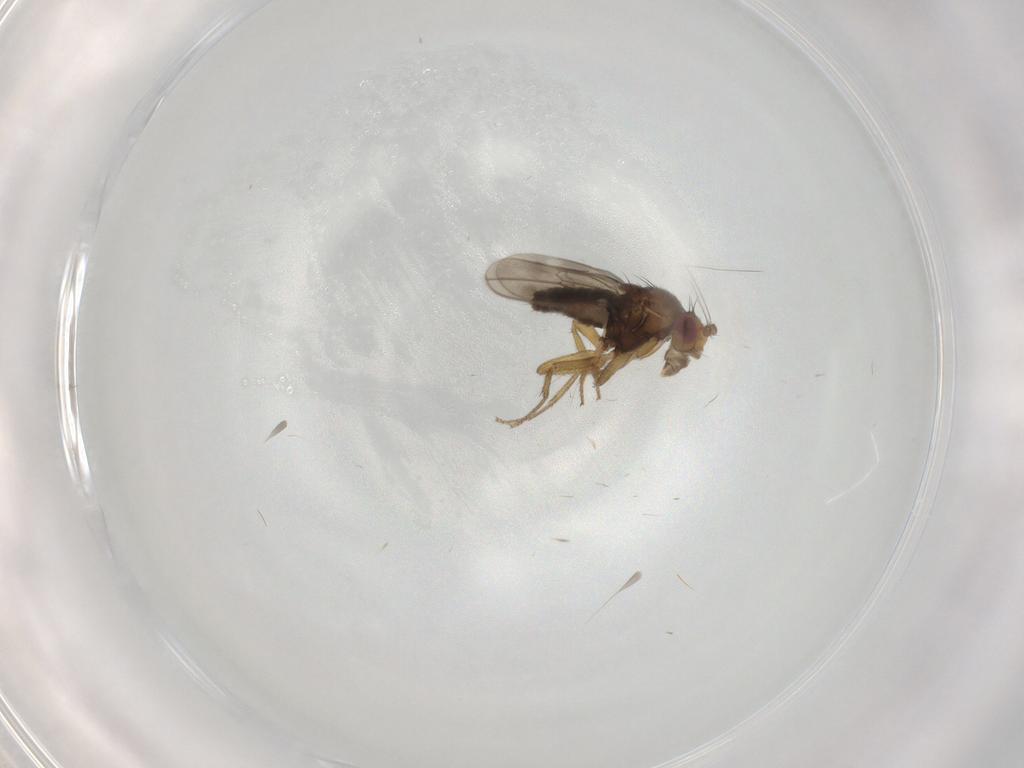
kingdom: Animalia
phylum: Arthropoda
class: Insecta
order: Diptera
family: Sphaeroceridae
